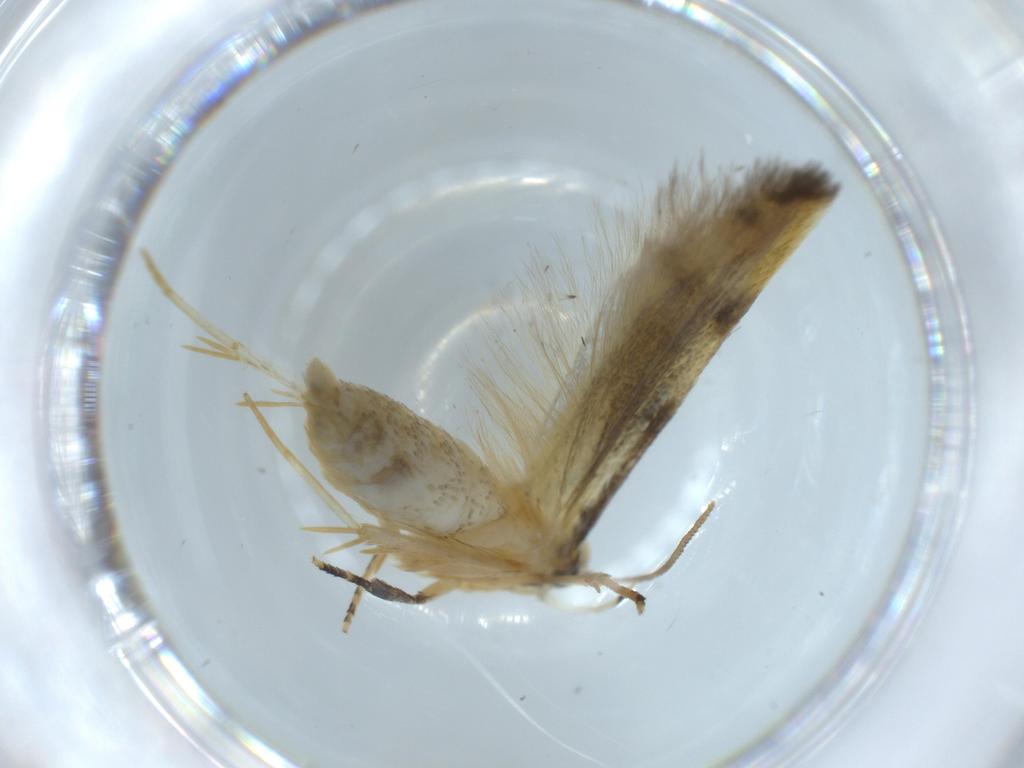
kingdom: Animalia
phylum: Arthropoda
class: Insecta
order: Lepidoptera
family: Autostichidae
